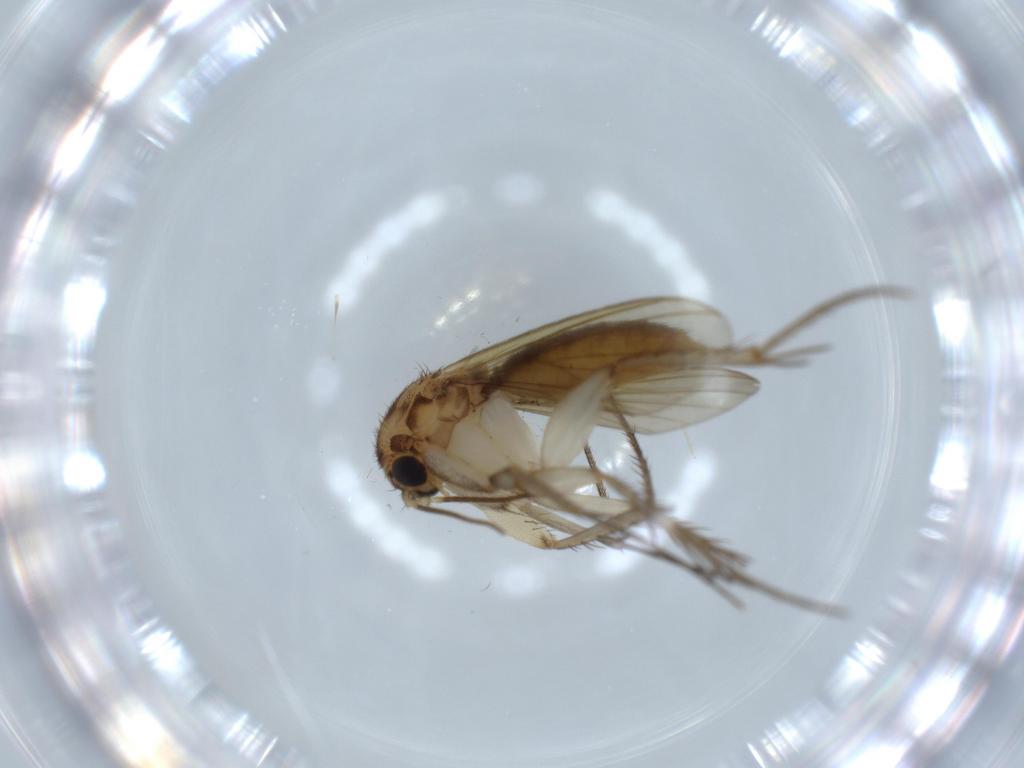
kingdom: Animalia
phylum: Arthropoda
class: Insecta
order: Diptera
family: Mycetophilidae
